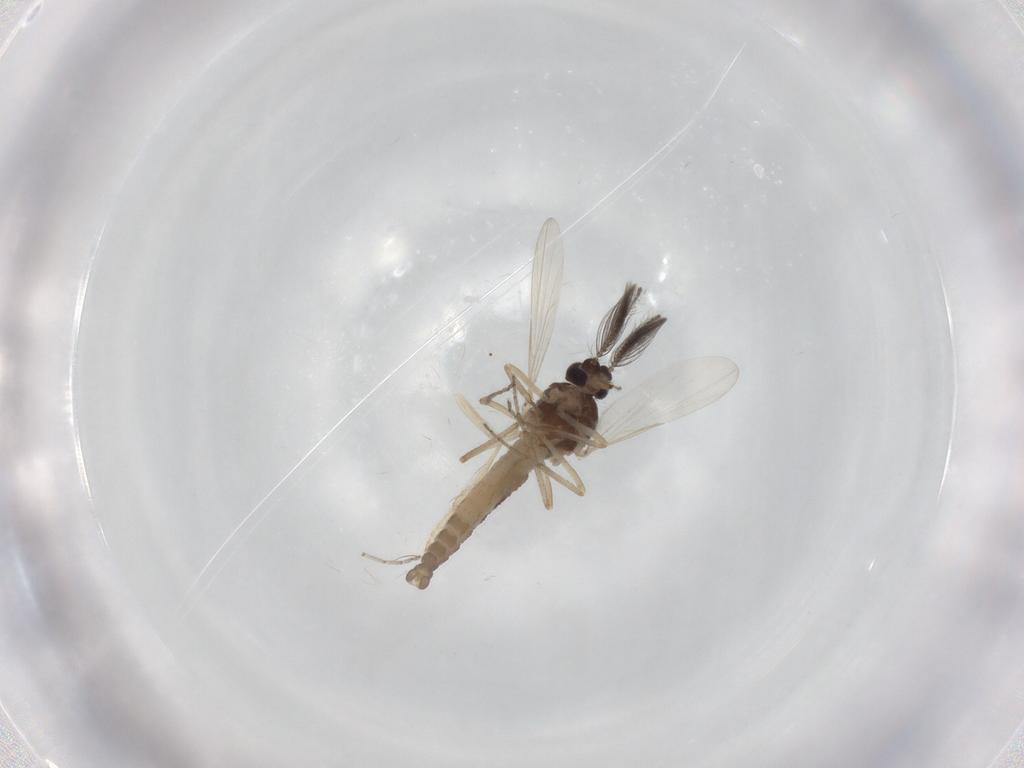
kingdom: Animalia
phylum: Arthropoda
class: Insecta
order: Diptera
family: Ceratopogonidae
